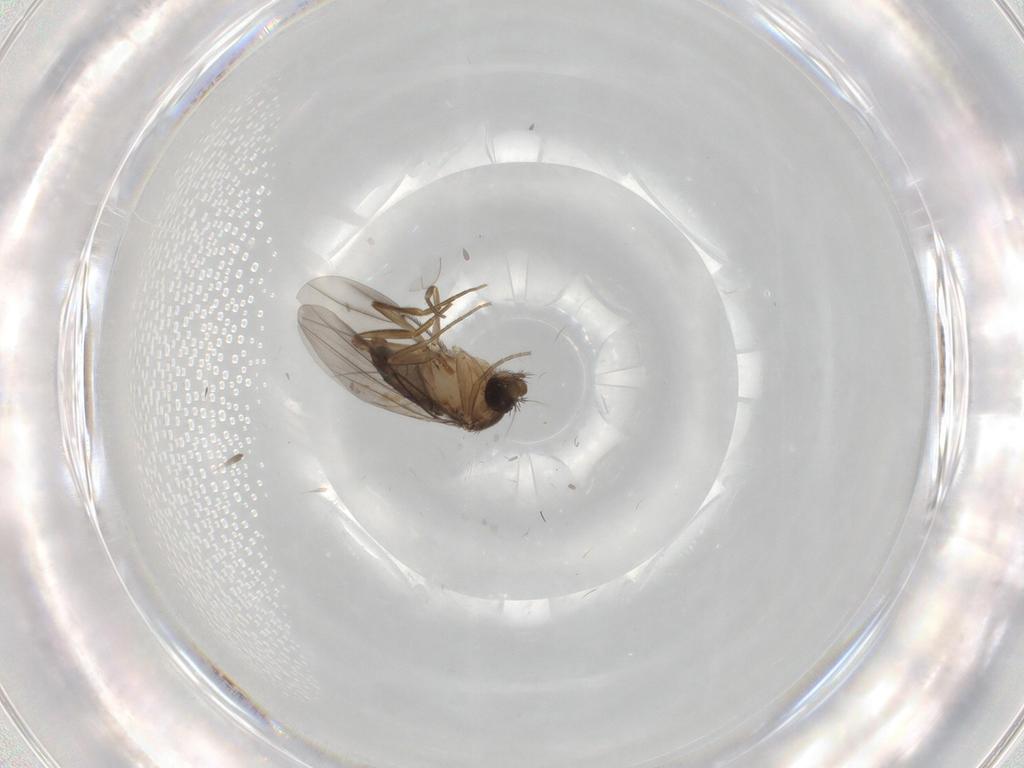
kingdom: Animalia
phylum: Arthropoda
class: Insecta
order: Diptera
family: Phoridae
